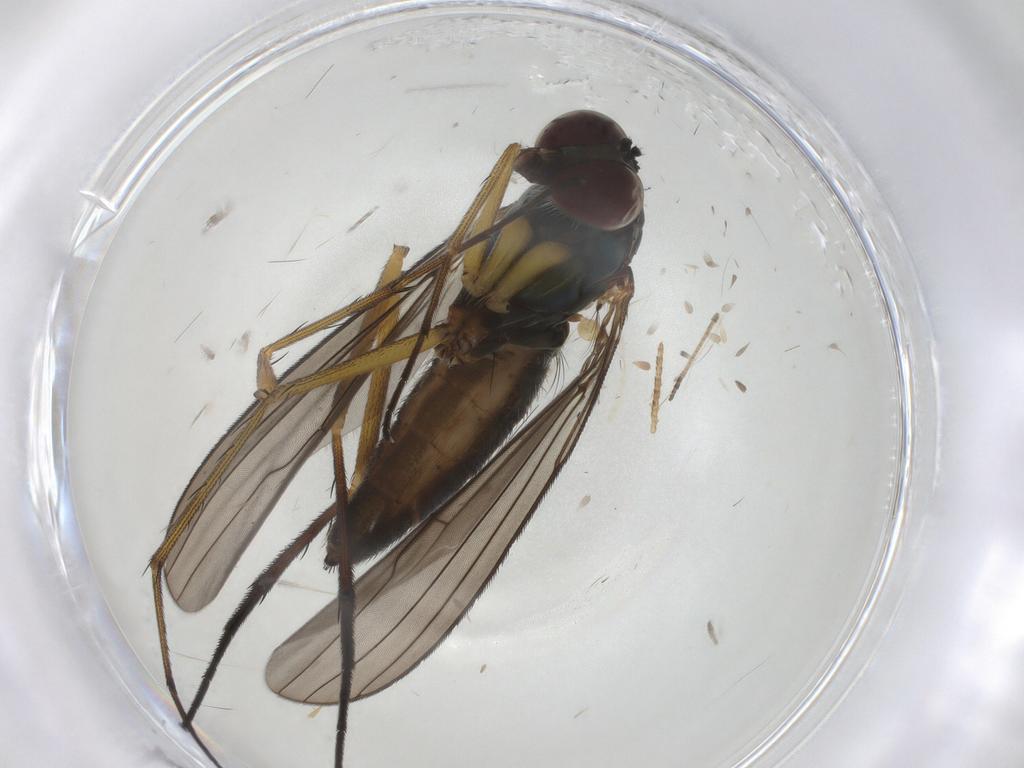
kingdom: Animalia
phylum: Arthropoda
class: Insecta
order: Diptera
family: Dolichopodidae
